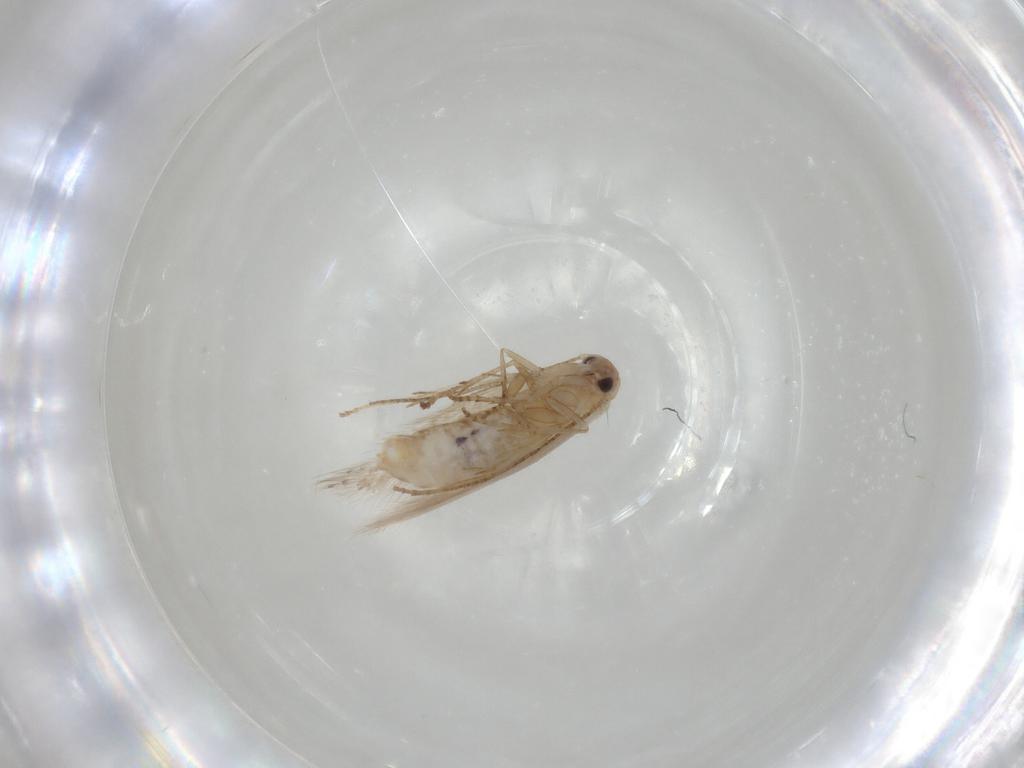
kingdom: Animalia
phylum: Arthropoda
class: Insecta
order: Lepidoptera
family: Bucculatricidae
